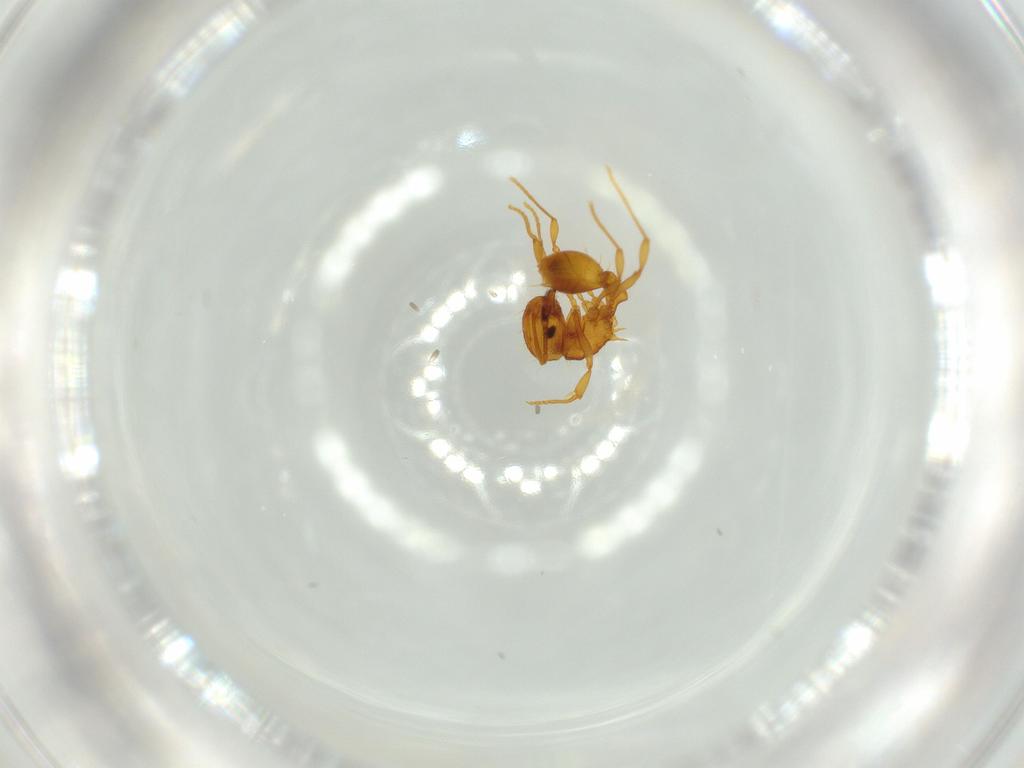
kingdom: Animalia
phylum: Arthropoda
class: Insecta
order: Hymenoptera
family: Formicidae
